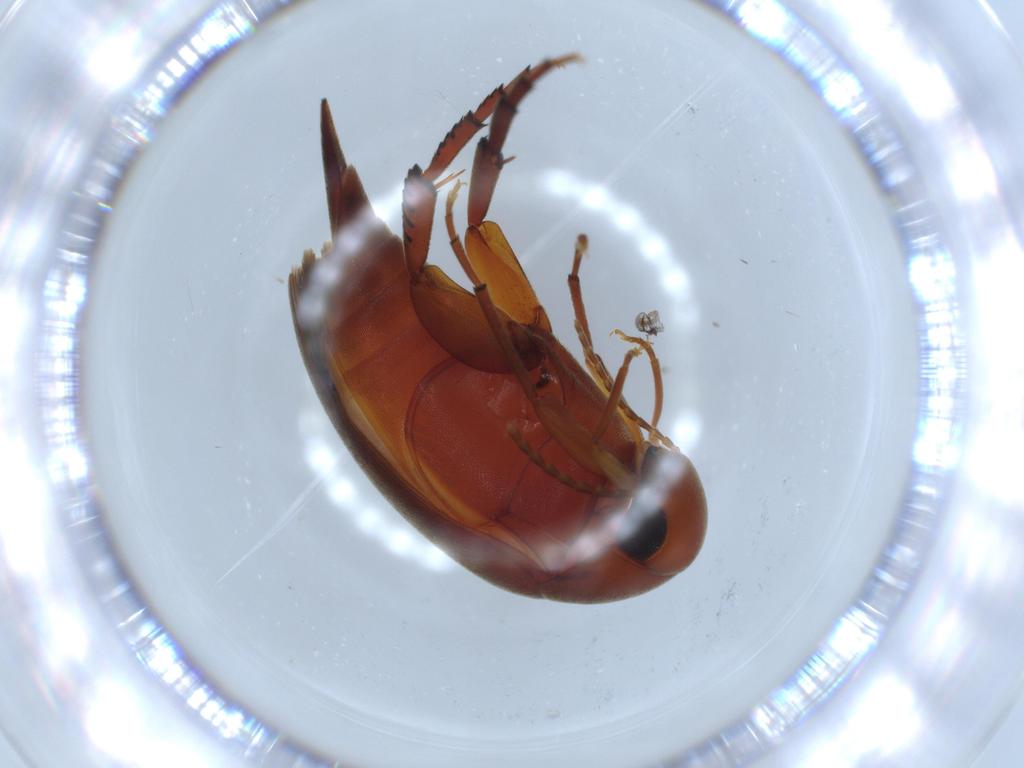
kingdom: Animalia
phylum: Arthropoda
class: Insecta
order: Coleoptera
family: Mordellidae
